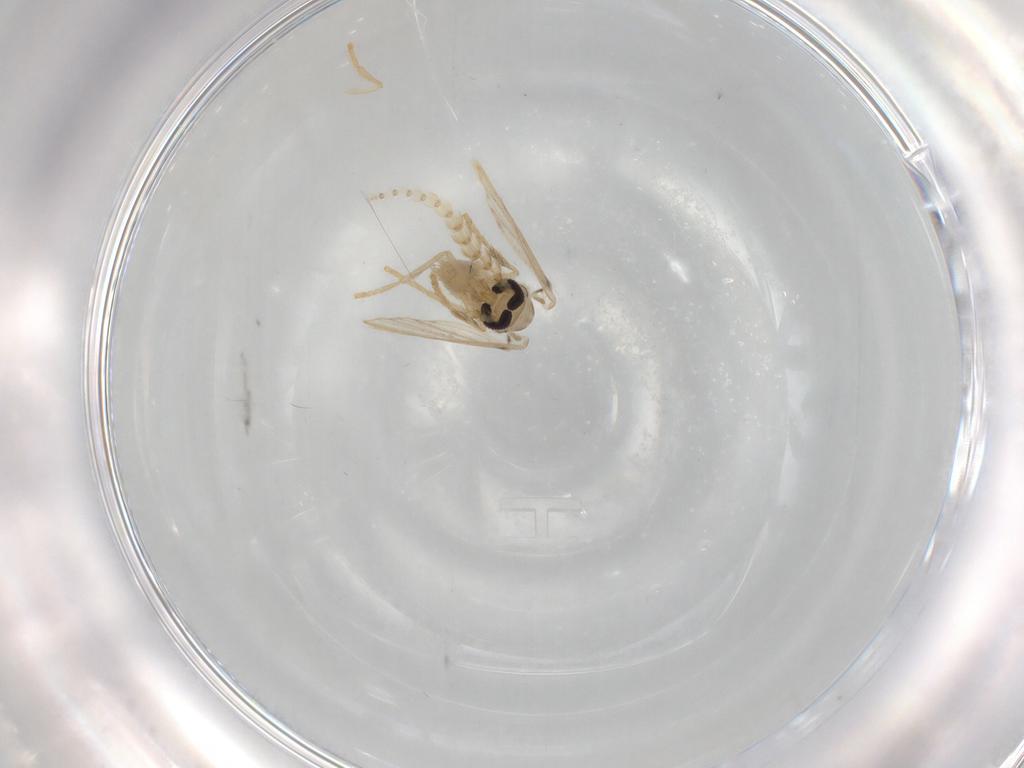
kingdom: Animalia
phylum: Arthropoda
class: Insecta
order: Diptera
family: Psychodidae
